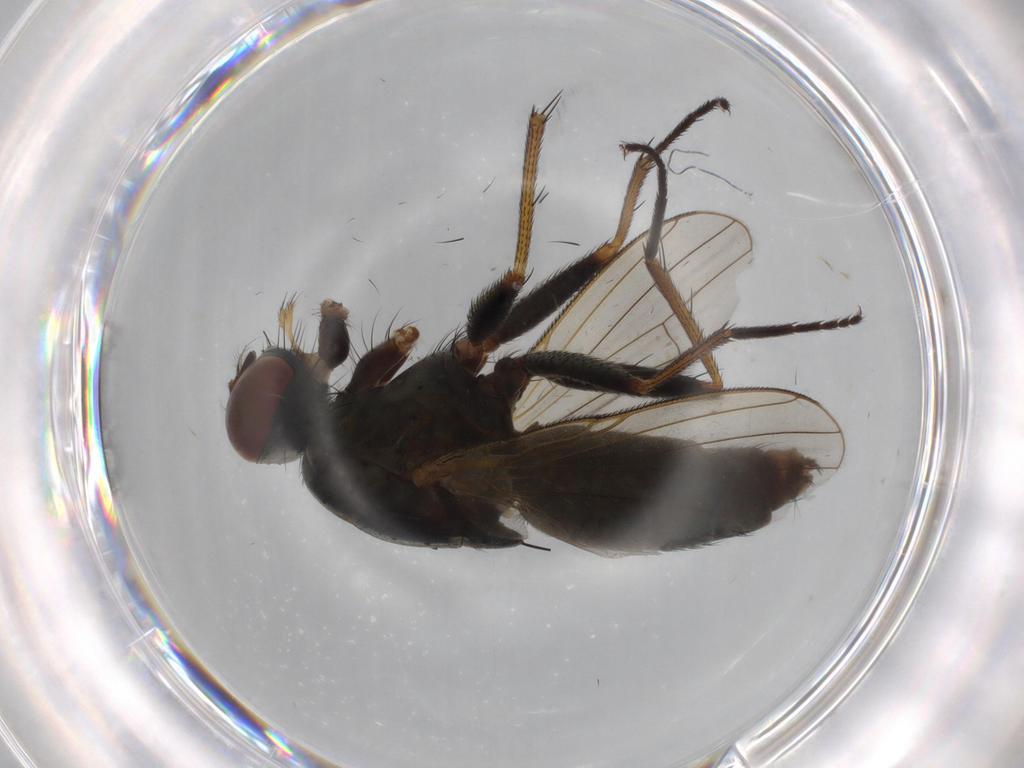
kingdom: Animalia
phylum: Arthropoda
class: Insecta
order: Diptera
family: Muscidae
